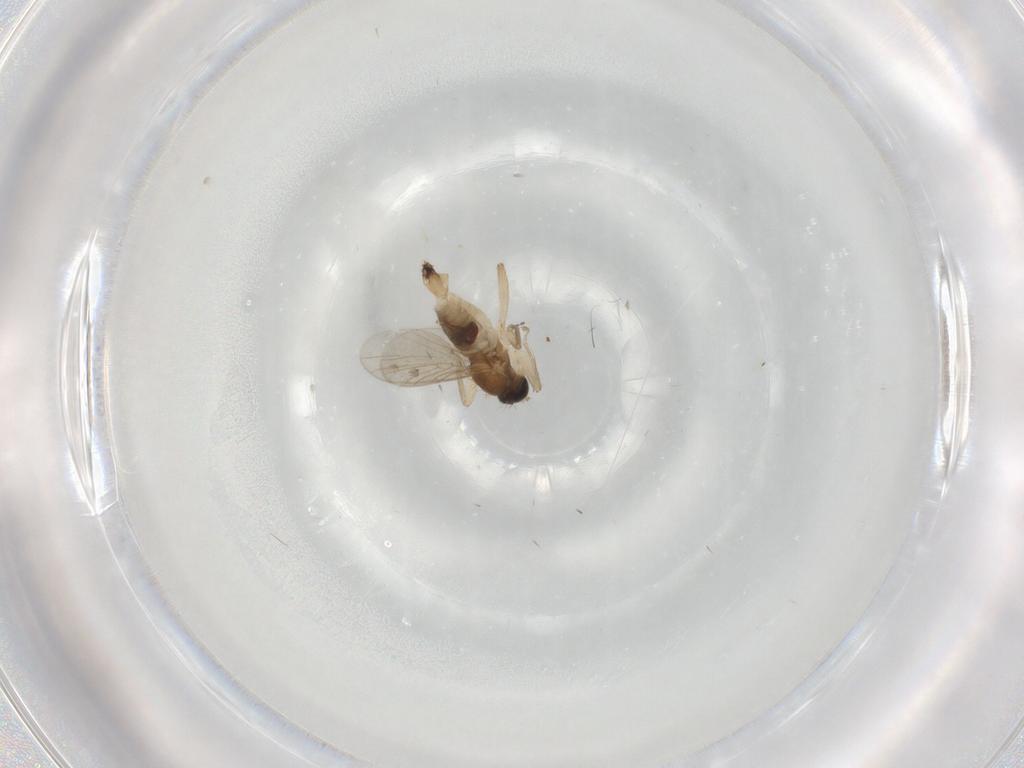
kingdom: Animalia
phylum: Arthropoda
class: Insecta
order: Diptera
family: Hybotidae
